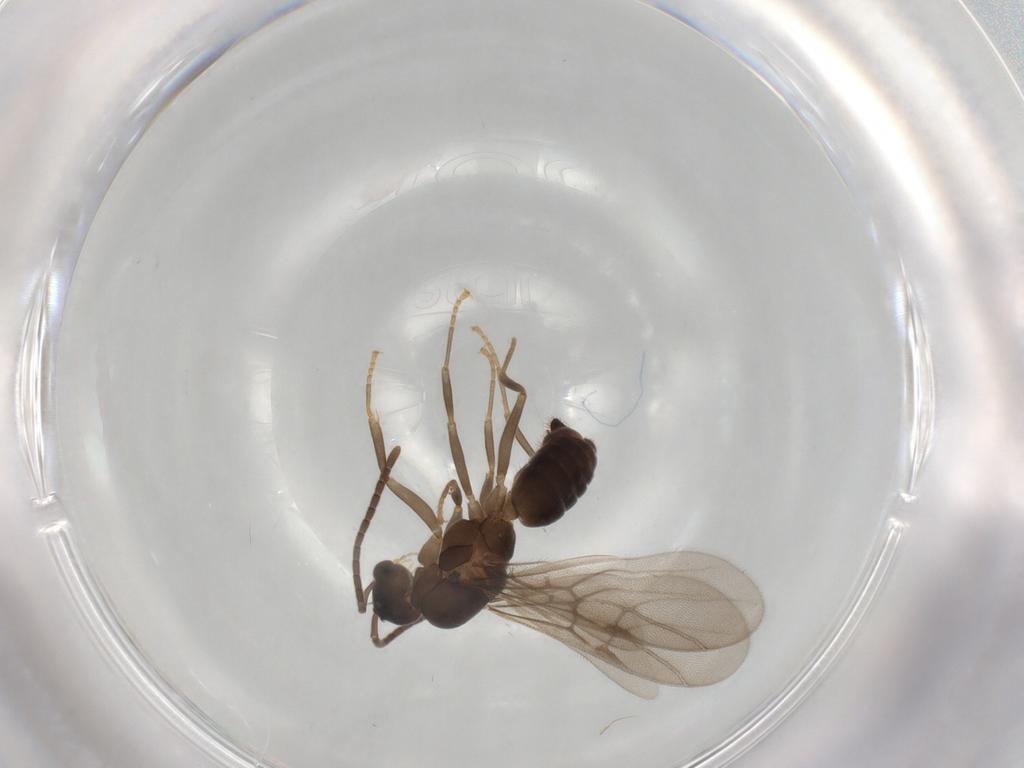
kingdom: Animalia
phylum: Arthropoda
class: Insecta
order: Hymenoptera
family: Formicidae
